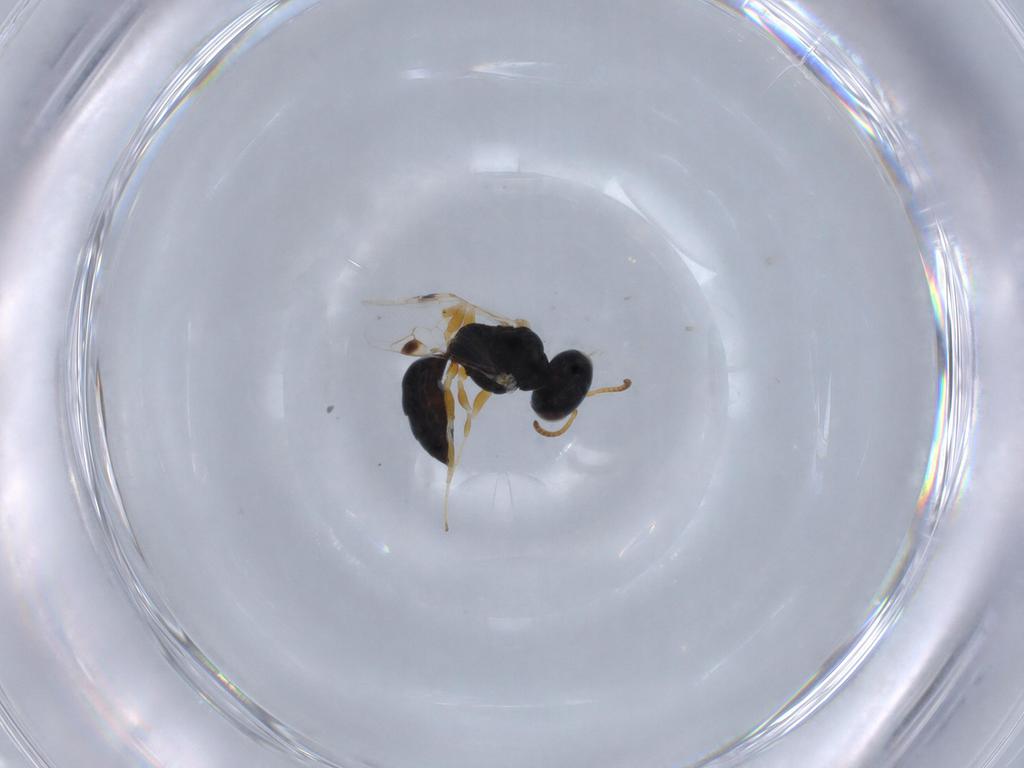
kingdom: Animalia
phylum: Arthropoda
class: Insecta
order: Hymenoptera
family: Pemphredonidae
